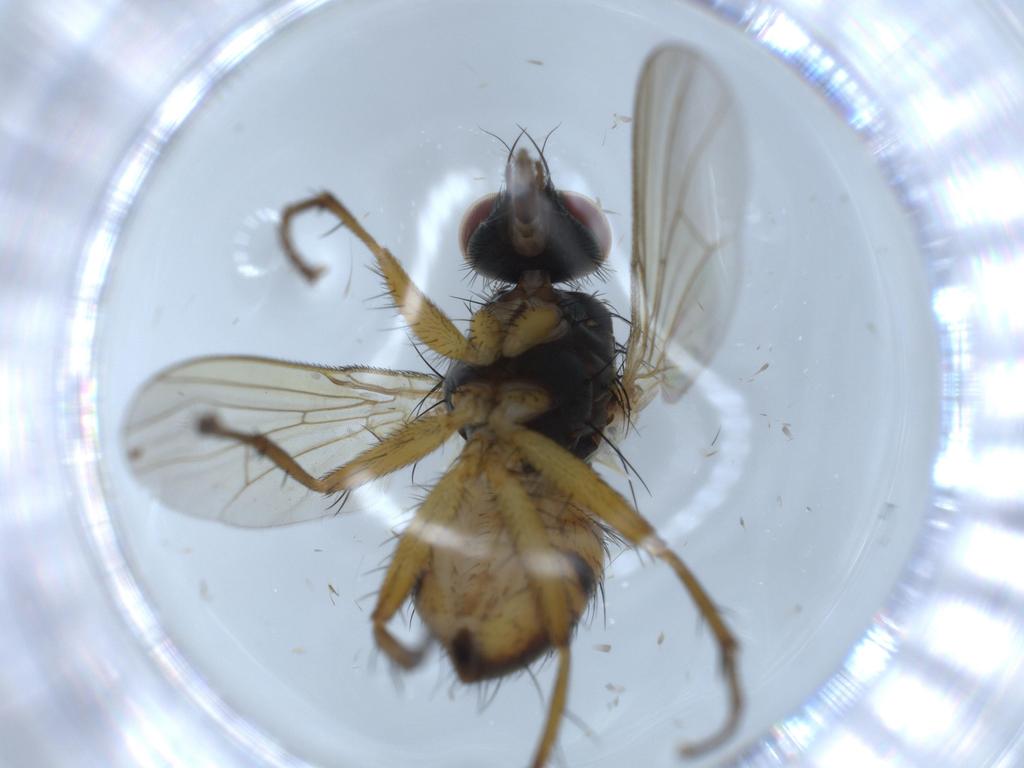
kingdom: Animalia
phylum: Arthropoda
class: Insecta
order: Diptera
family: Muscidae
